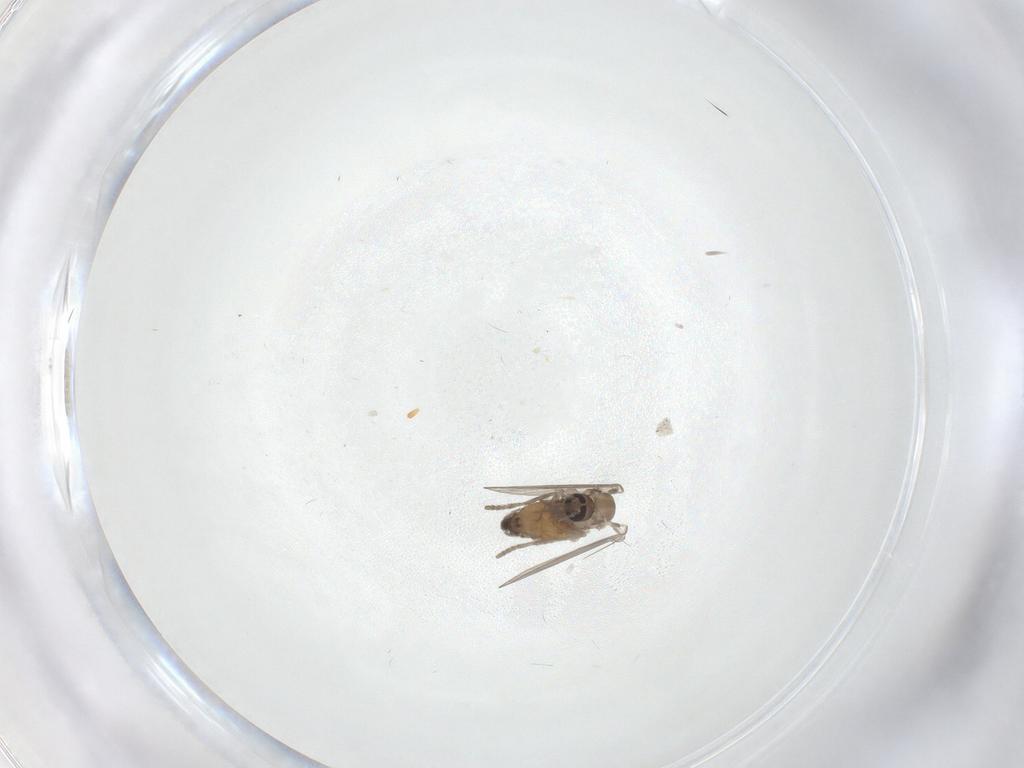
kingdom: Animalia
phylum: Arthropoda
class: Insecta
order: Diptera
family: Psychodidae
